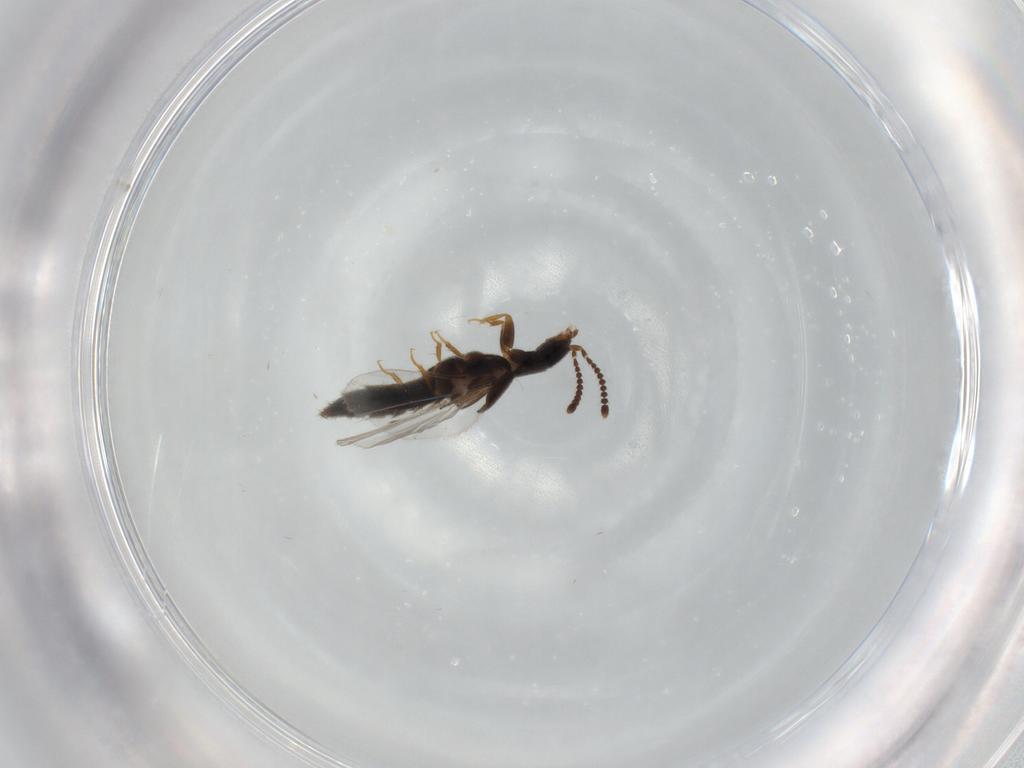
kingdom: Animalia
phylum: Arthropoda
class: Insecta
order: Coleoptera
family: Staphylinidae
